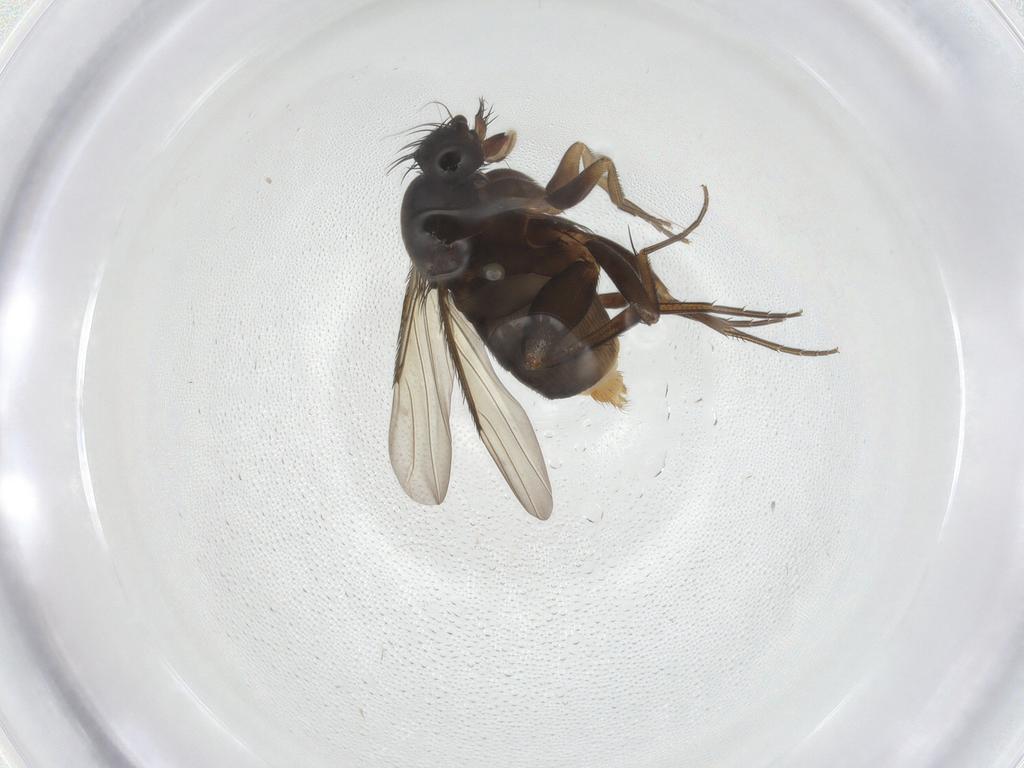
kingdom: Animalia
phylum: Arthropoda
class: Insecta
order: Diptera
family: Phoridae
